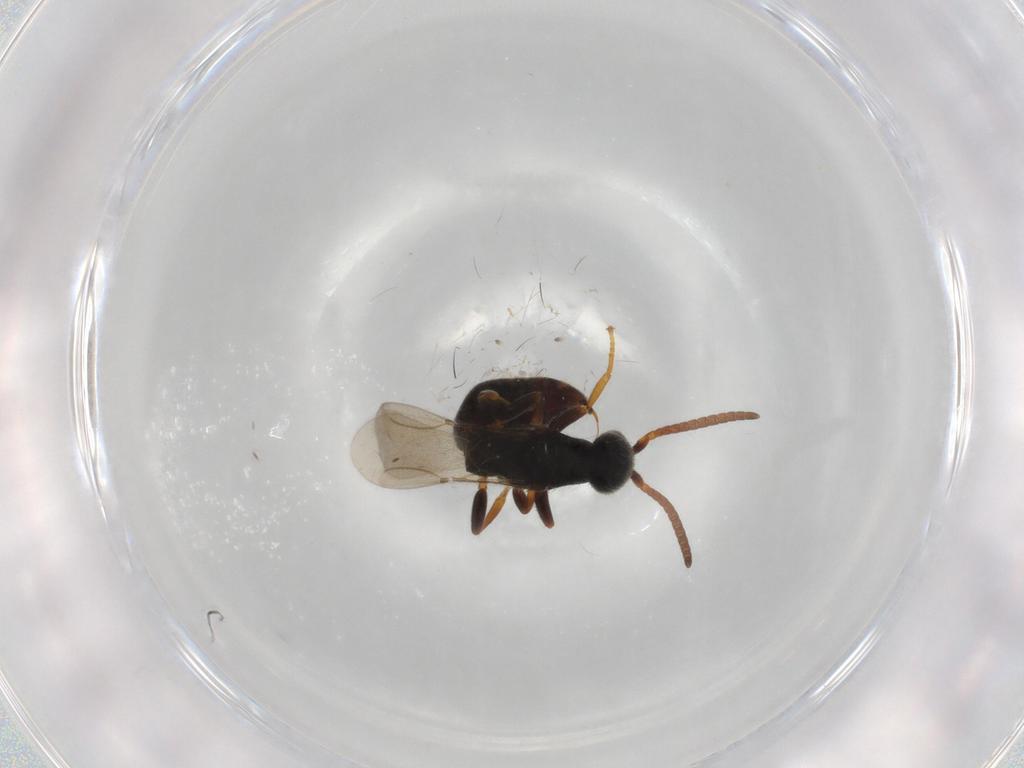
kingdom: Animalia
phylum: Arthropoda
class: Insecta
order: Hymenoptera
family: Bethylidae
